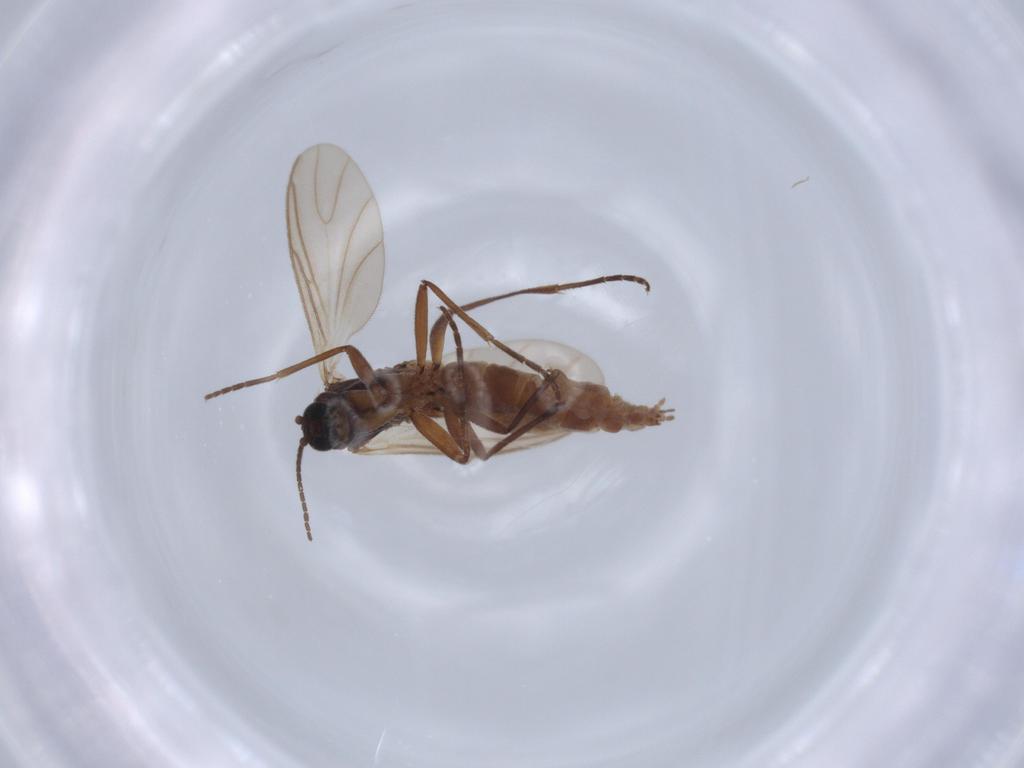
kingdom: Animalia
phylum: Arthropoda
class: Insecta
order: Diptera
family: Sciaridae
